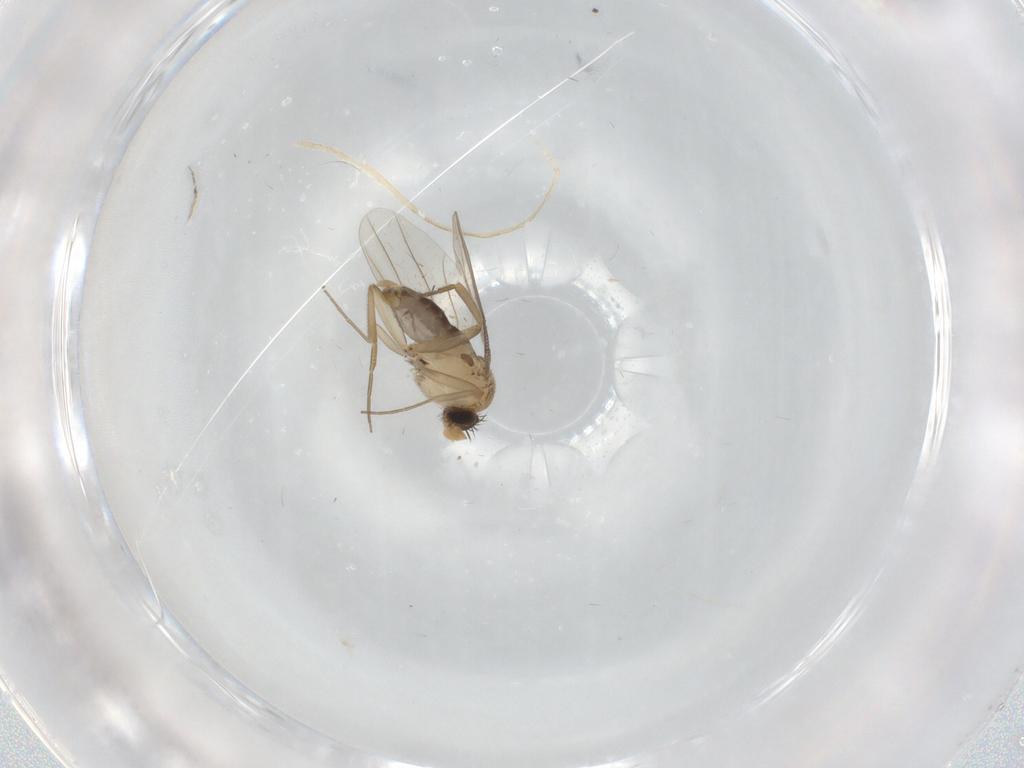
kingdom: Animalia
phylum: Arthropoda
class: Insecta
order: Diptera
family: Phoridae
